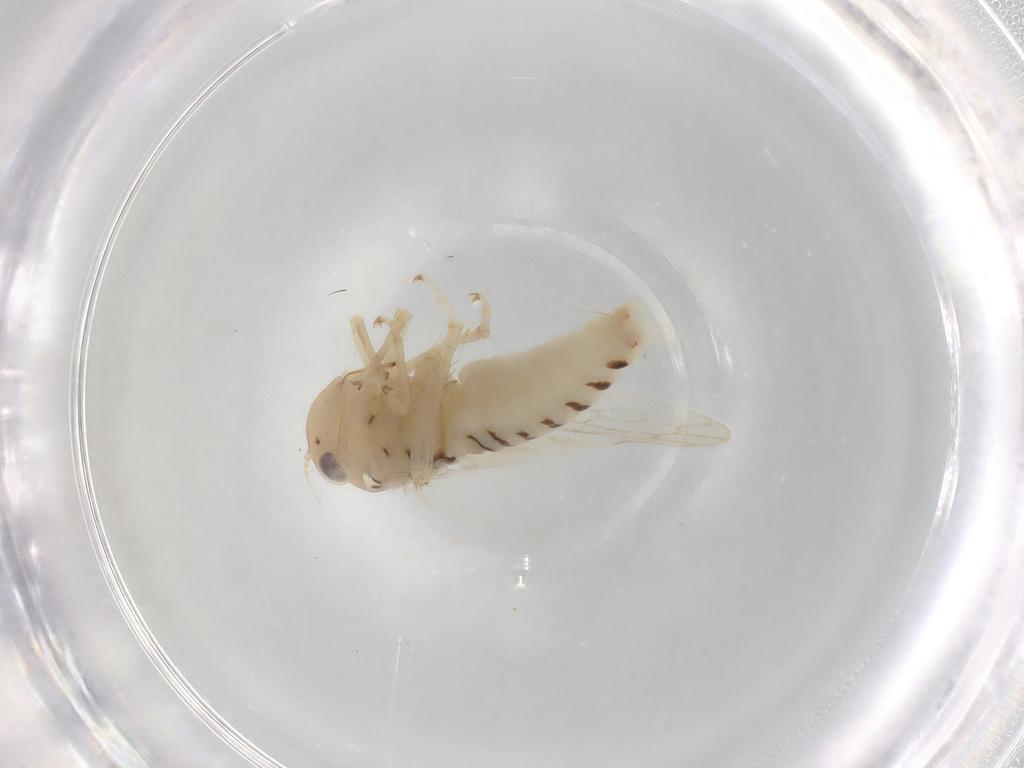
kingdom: Animalia
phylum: Arthropoda
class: Insecta
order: Hemiptera
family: Cicadellidae
